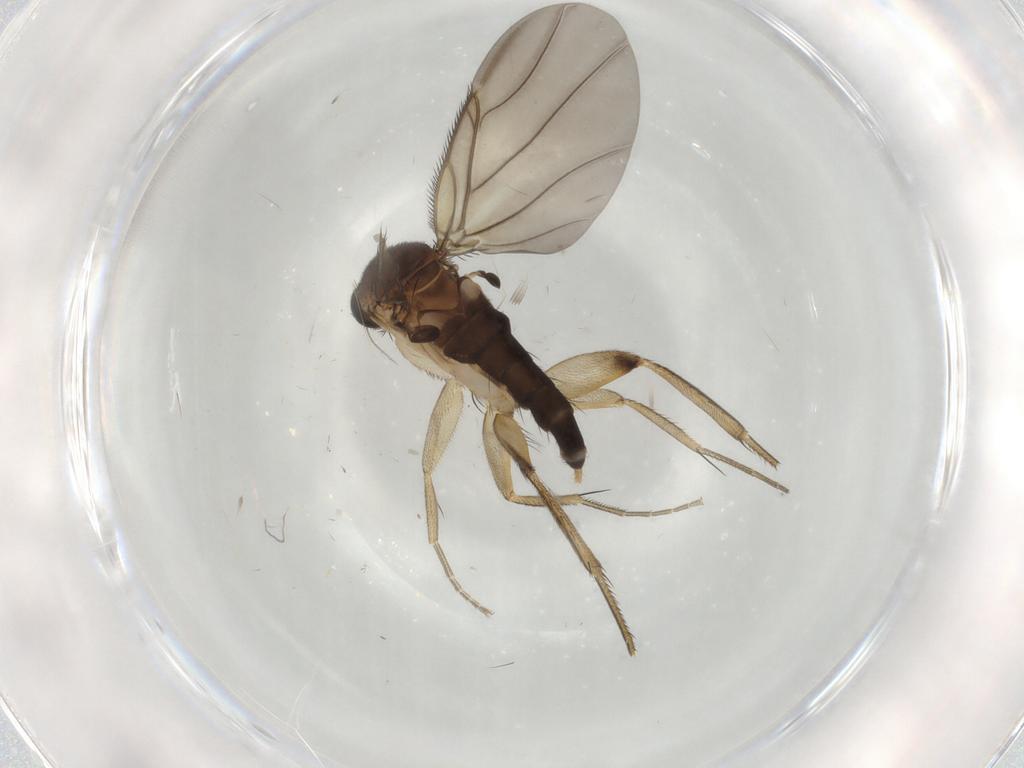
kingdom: Animalia
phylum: Arthropoda
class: Insecta
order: Diptera
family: Phoridae
